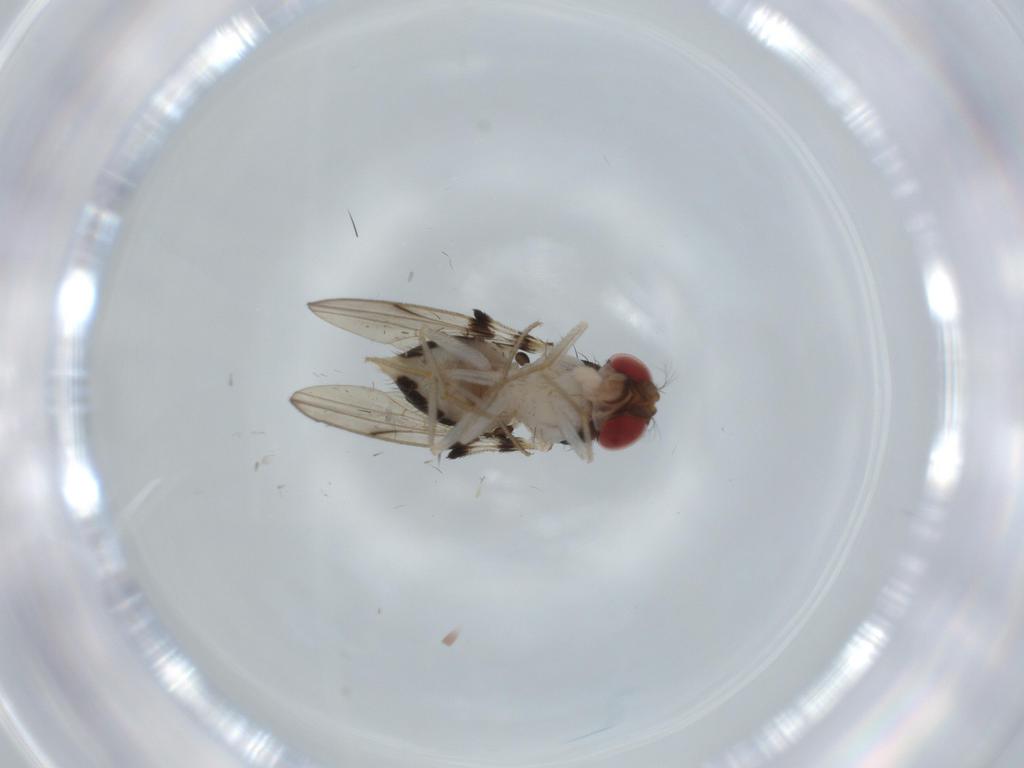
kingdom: Animalia
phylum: Arthropoda
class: Insecta
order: Diptera
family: Drosophilidae
